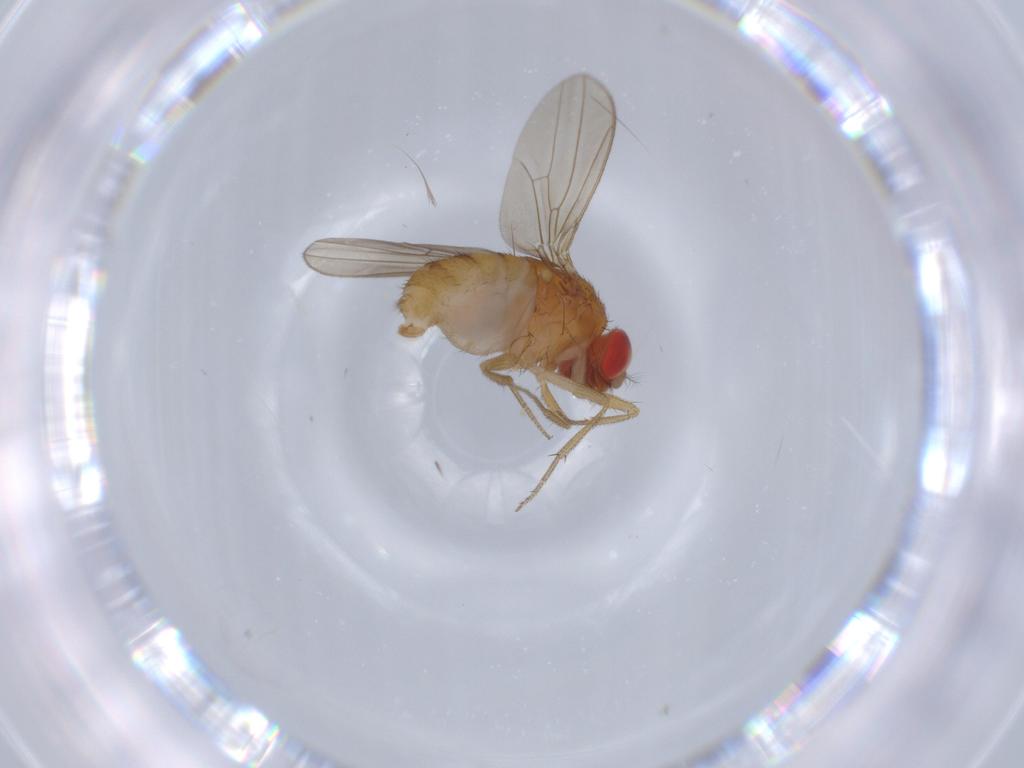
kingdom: Animalia
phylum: Arthropoda
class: Insecta
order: Diptera
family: Drosophilidae
